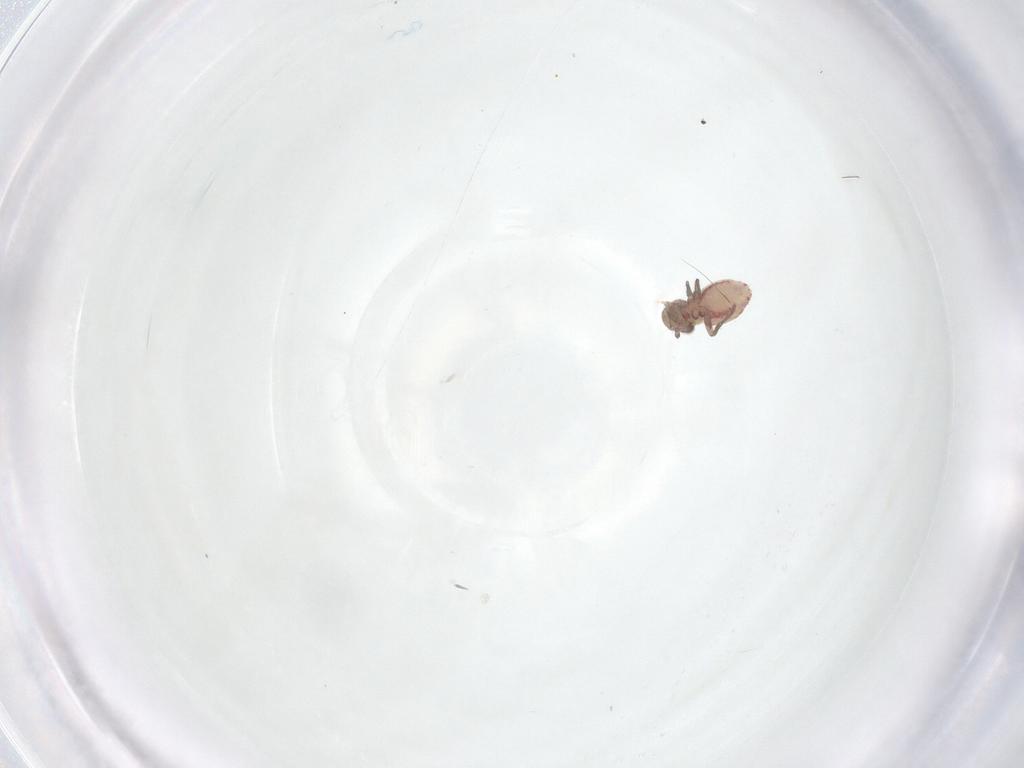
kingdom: Animalia
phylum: Arthropoda
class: Insecta
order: Psocodea
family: Philotarsidae
